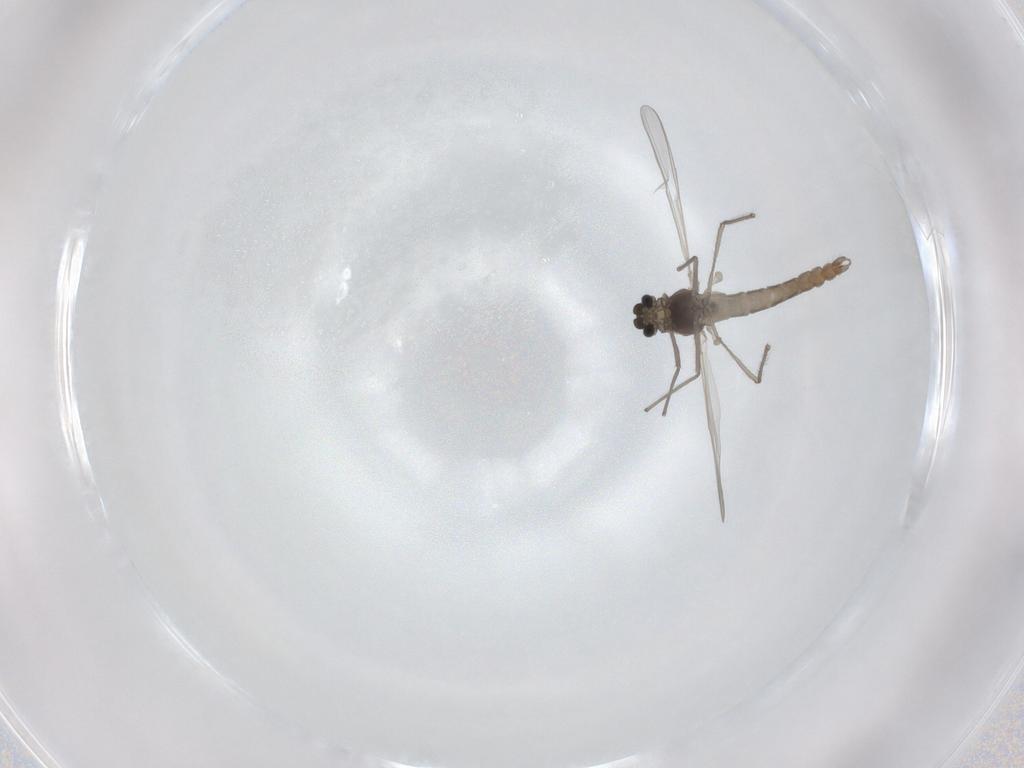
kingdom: Animalia
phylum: Arthropoda
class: Insecta
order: Diptera
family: Chironomidae
